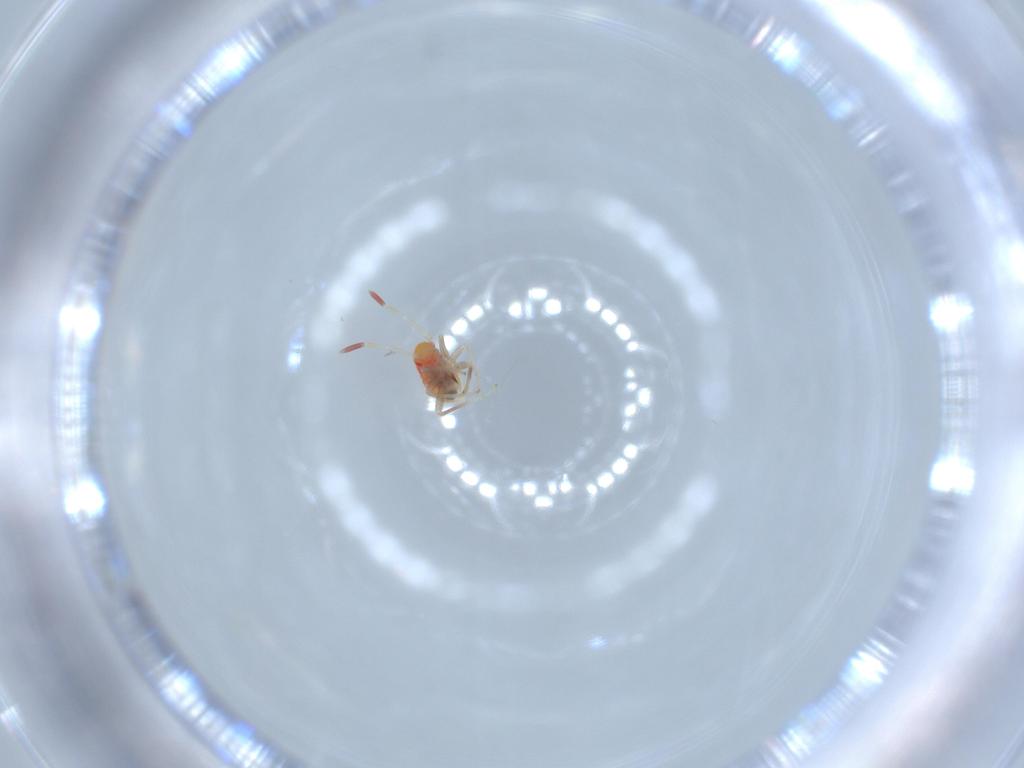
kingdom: Animalia
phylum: Arthropoda
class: Insecta
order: Hemiptera
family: Miridae
